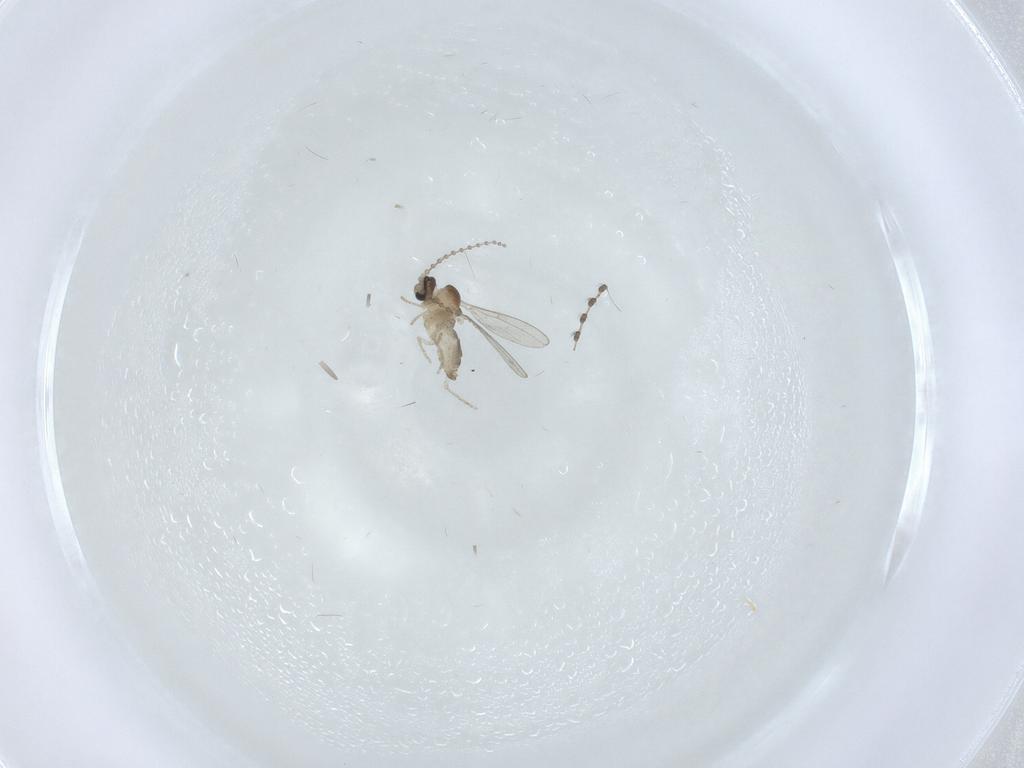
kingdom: Animalia
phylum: Arthropoda
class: Insecta
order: Diptera
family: Cecidomyiidae
